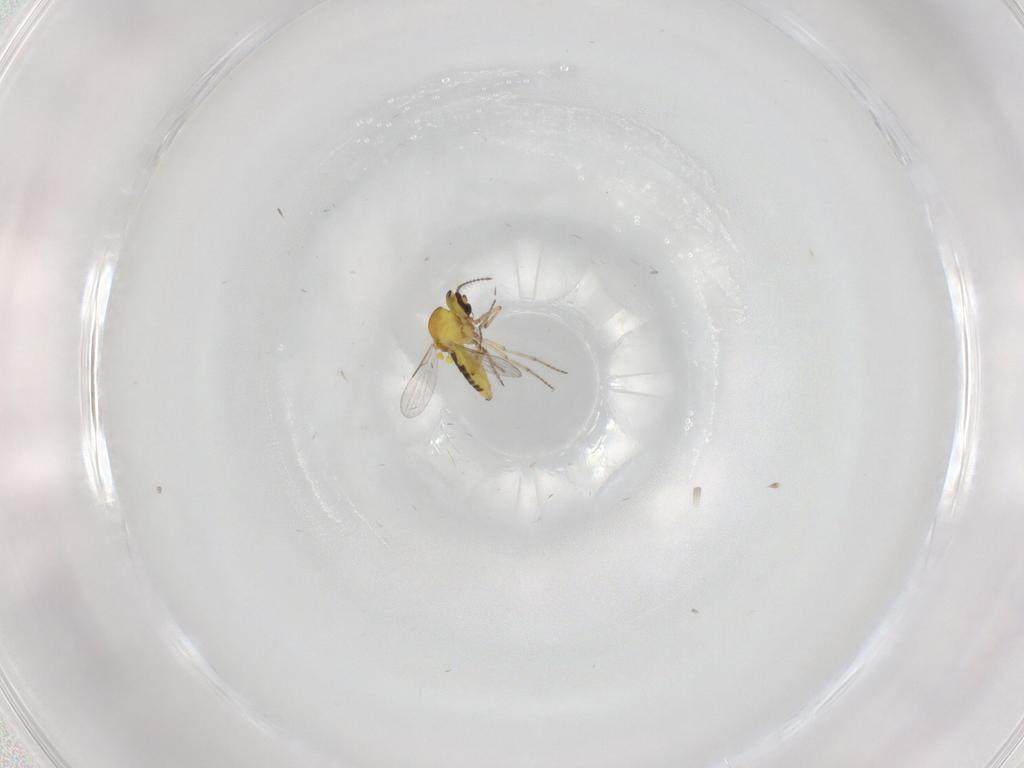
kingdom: Animalia
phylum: Arthropoda
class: Insecta
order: Diptera
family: Ceratopogonidae
